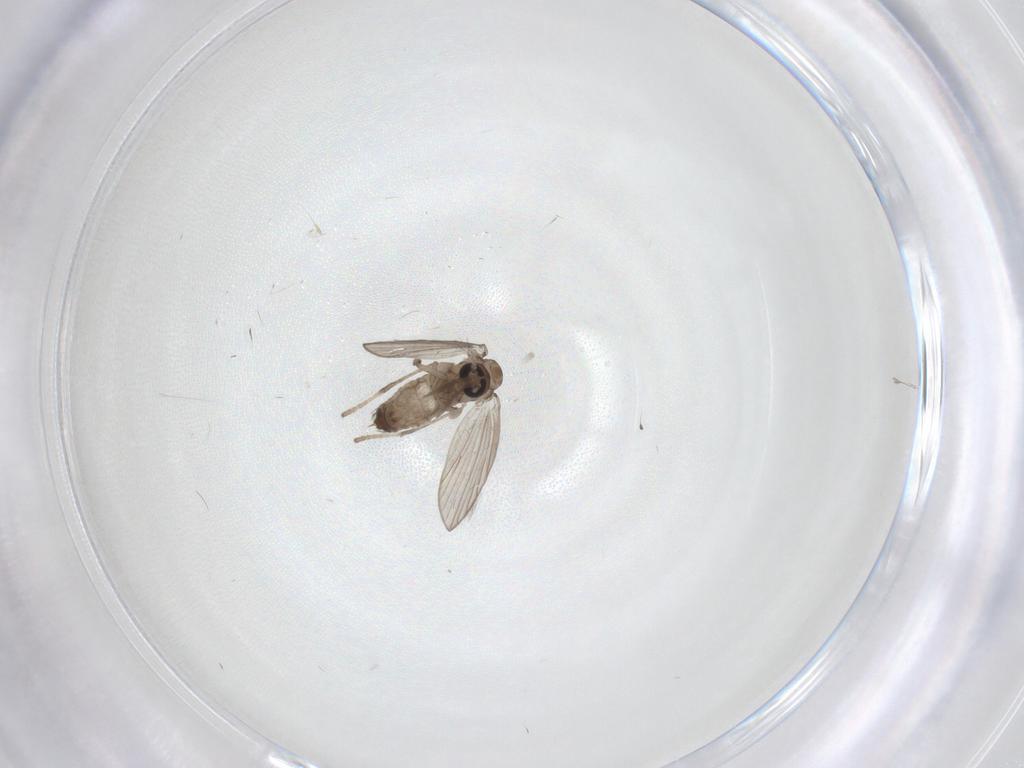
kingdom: Animalia
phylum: Arthropoda
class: Insecta
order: Diptera
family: Psychodidae
